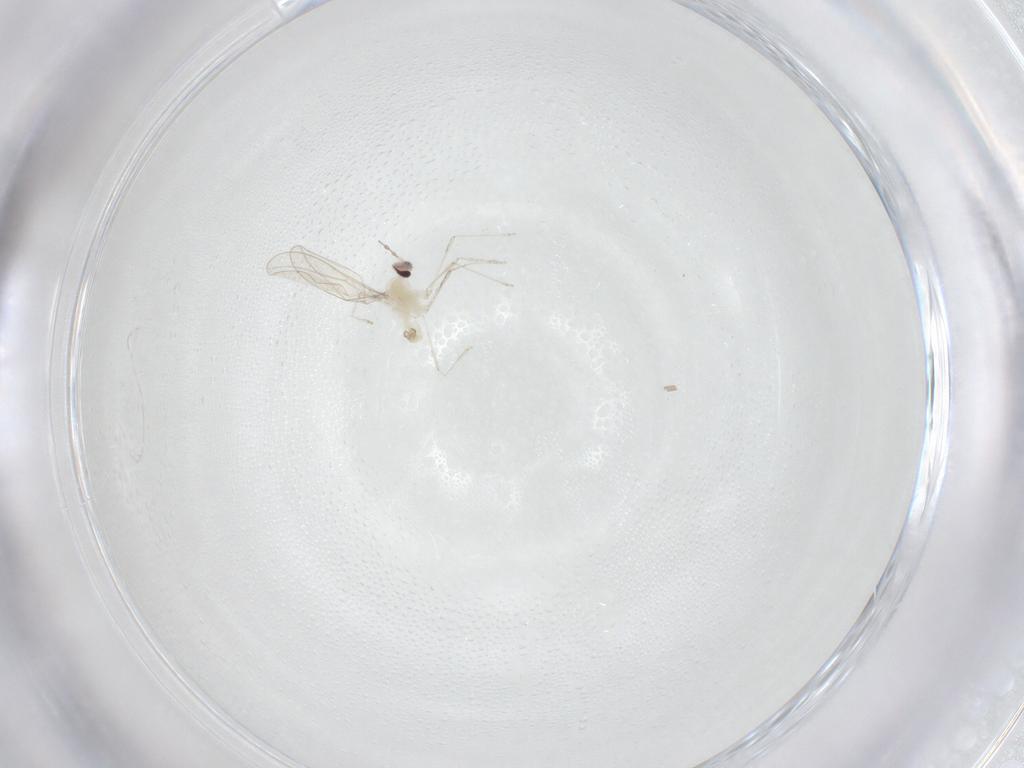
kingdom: Animalia
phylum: Arthropoda
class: Insecta
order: Diptera
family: Cecidomyiidae
